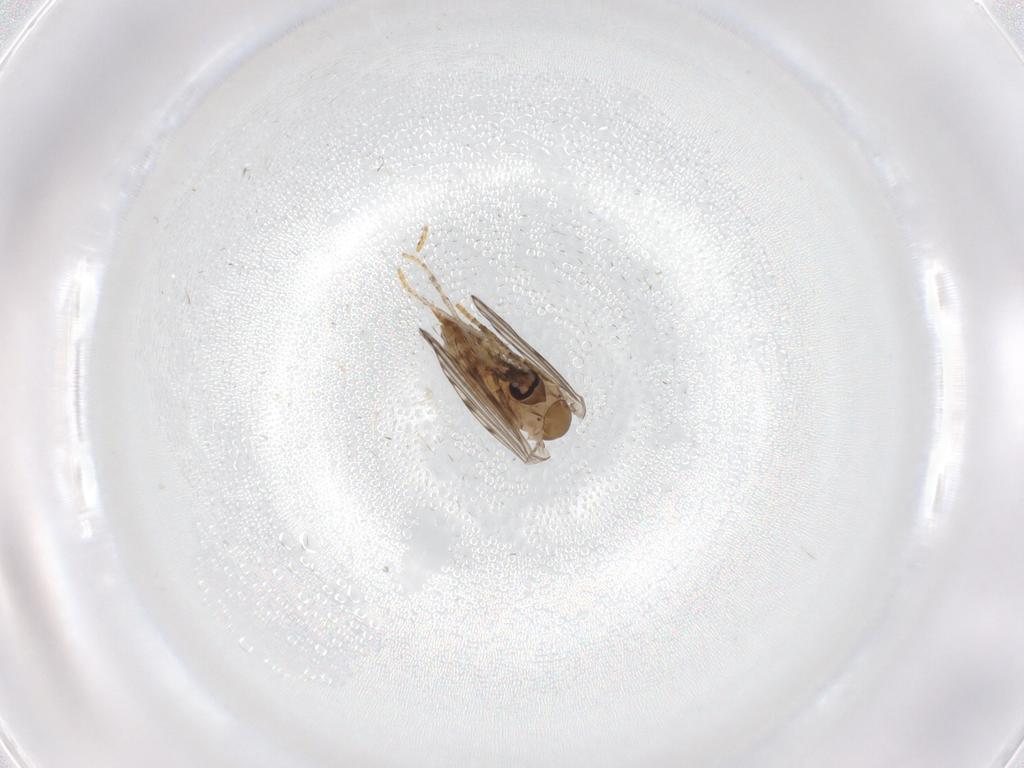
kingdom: Animalia
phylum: Arthropoda
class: Insecta
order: Diptera
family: Psychodidae
